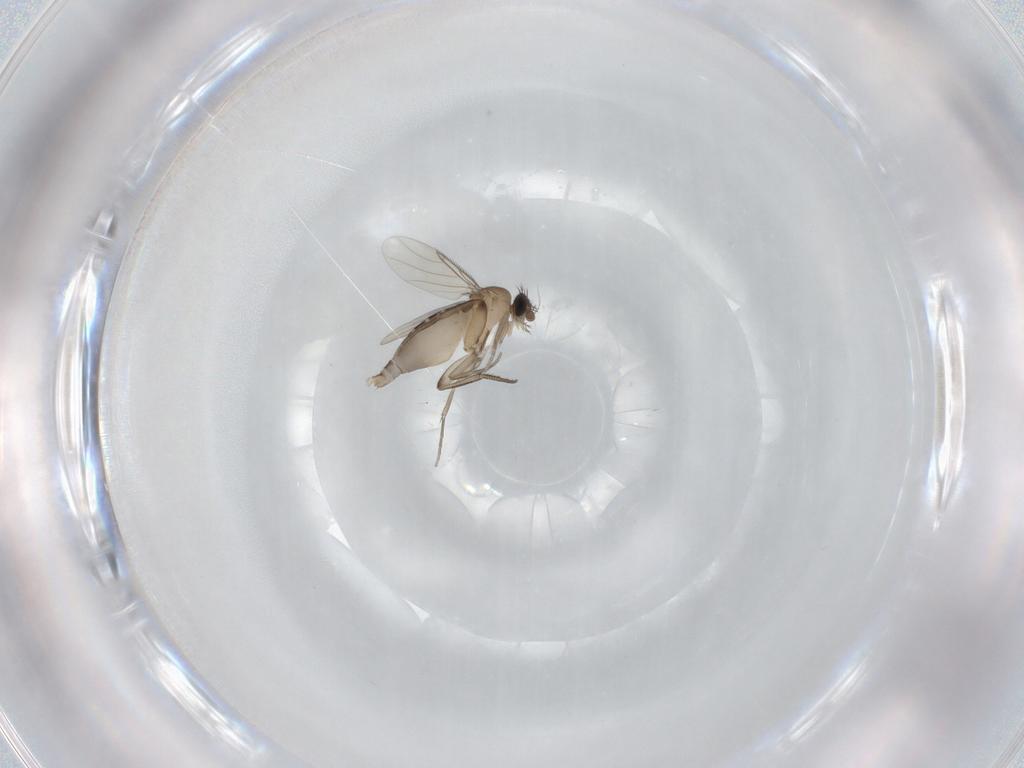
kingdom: Animalia
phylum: Arthropoda
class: Insecta
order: Diptera
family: Phoridae
